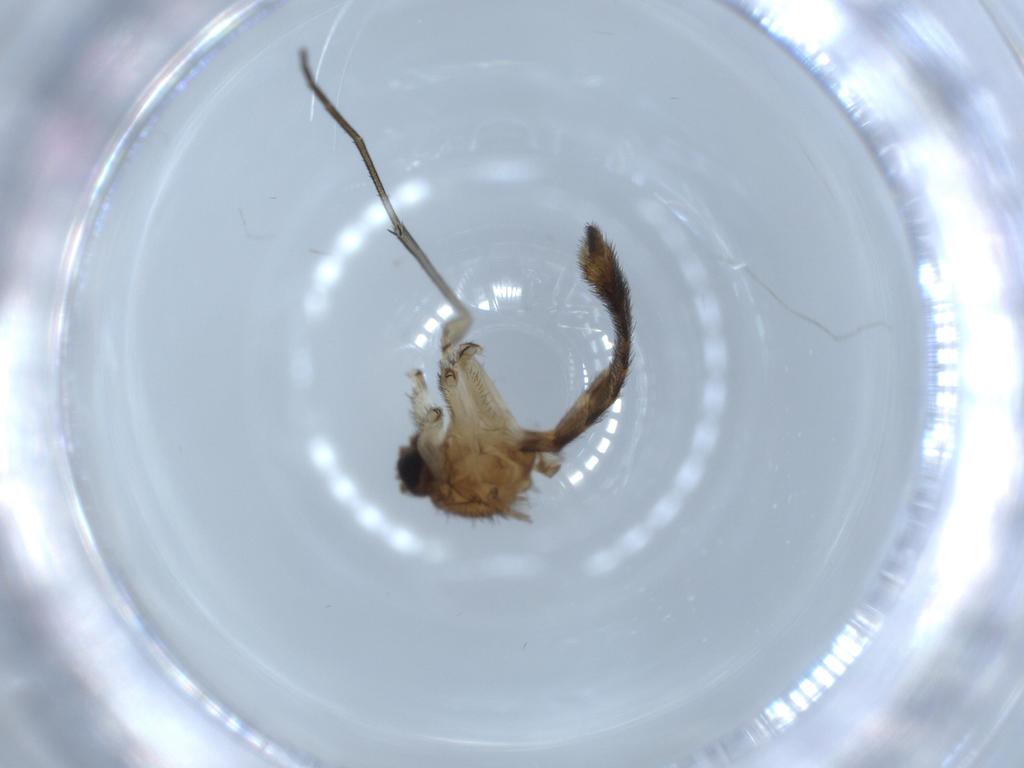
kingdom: Animalia
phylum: Arthropoda
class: Insecta
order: Diptera
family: Keroplatidae
